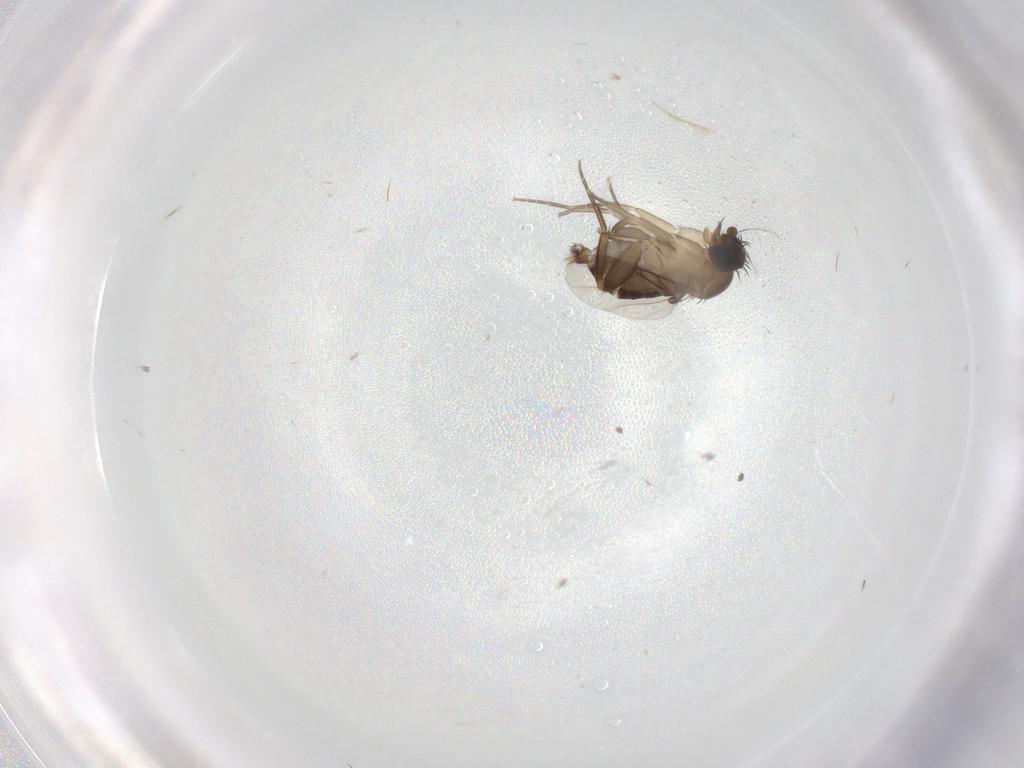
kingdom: Animalia
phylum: Arthropoda
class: Insecta
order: Diptera
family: Phoridae
